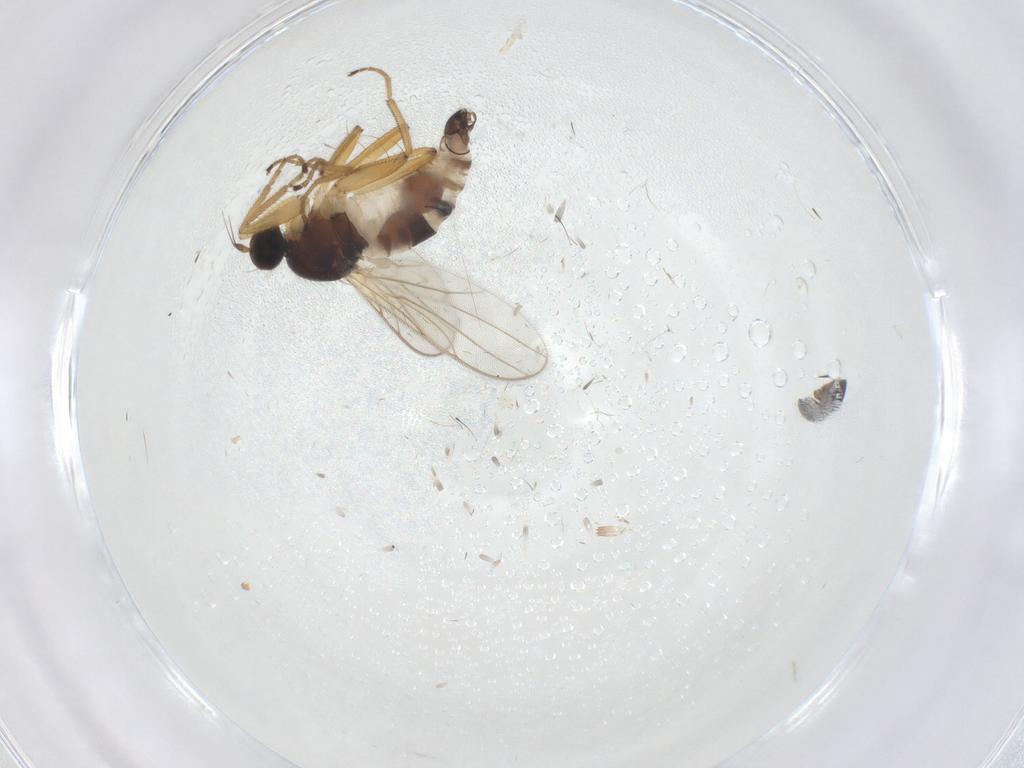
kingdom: Animalia
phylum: Arthropoda
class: Insecta
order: Diptera
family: Hybotidae
